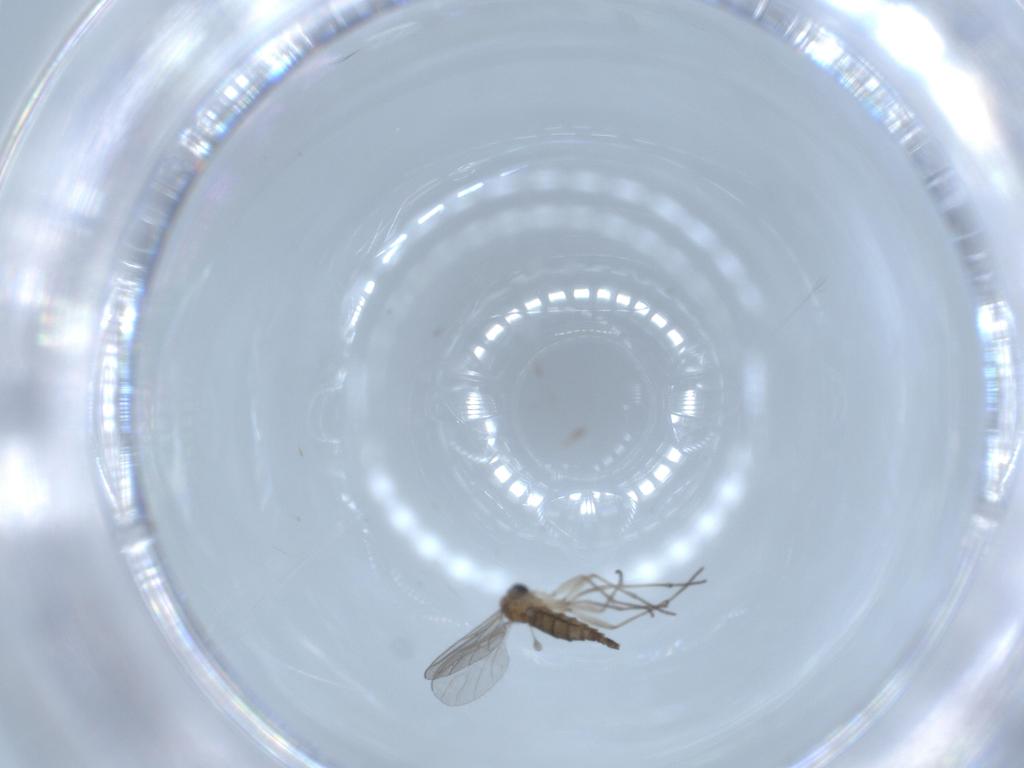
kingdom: Animalia
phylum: Arthropoda
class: Insecta
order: Diptera
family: Sciaridae
